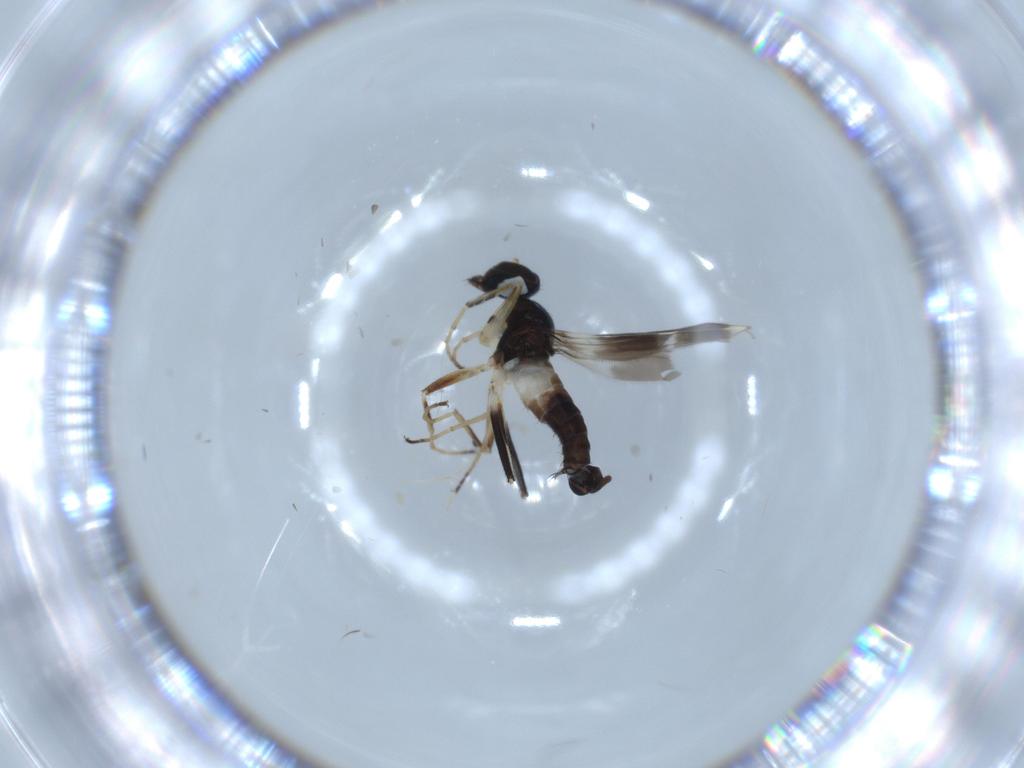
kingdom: Animalia
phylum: Arthropoda
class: Insecta
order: Diptera
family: Hybotidae
